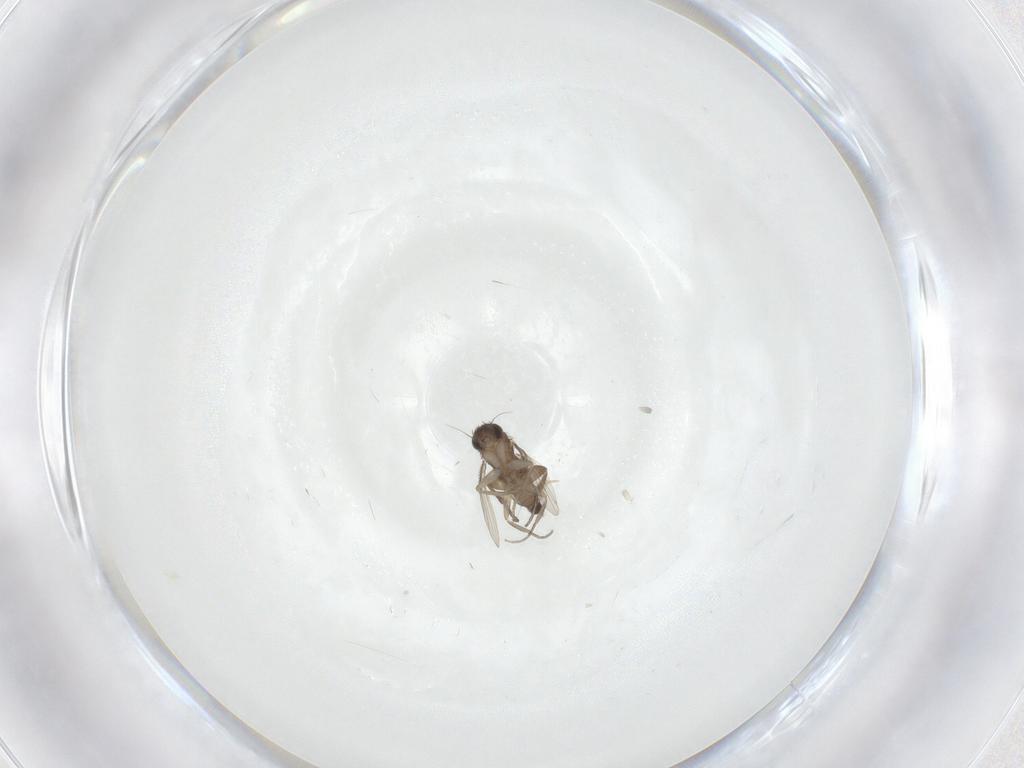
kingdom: Animalia
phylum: Arthropoda
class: Insecta
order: Diptera
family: Phoridae
